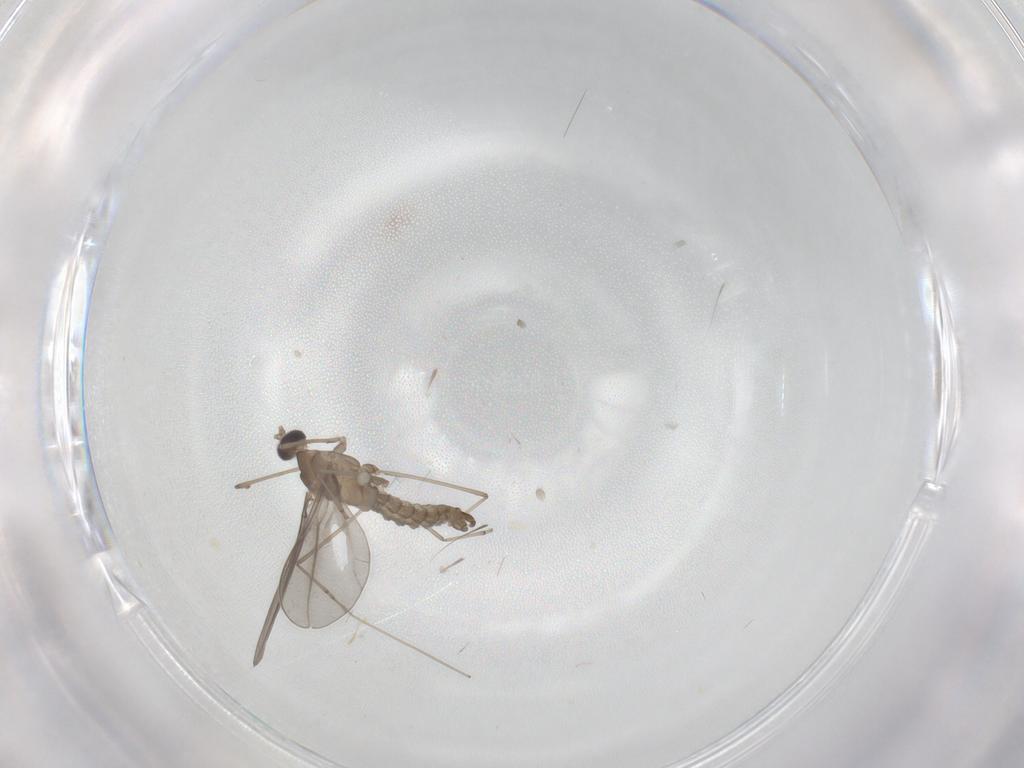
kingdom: Animalia
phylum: Arthropoda
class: Insecta
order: Diptera
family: Cecidomyiidae
